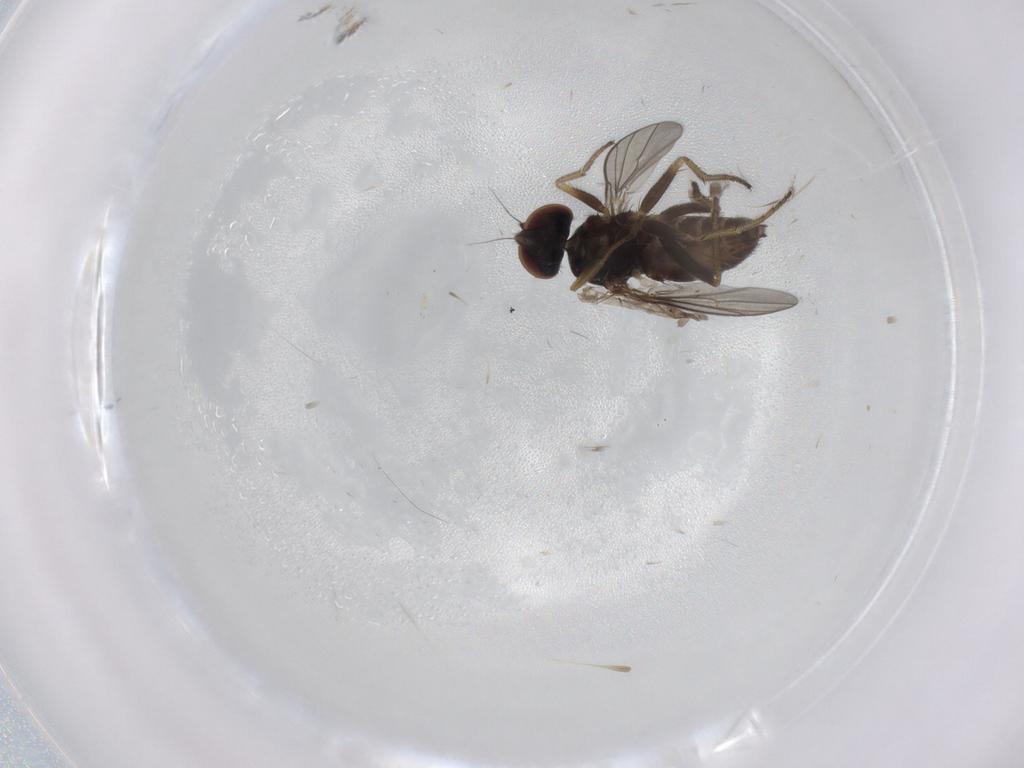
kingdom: Animalia
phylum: Arthropoda
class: Insecta
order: Diptera
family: Dolichopodidae
